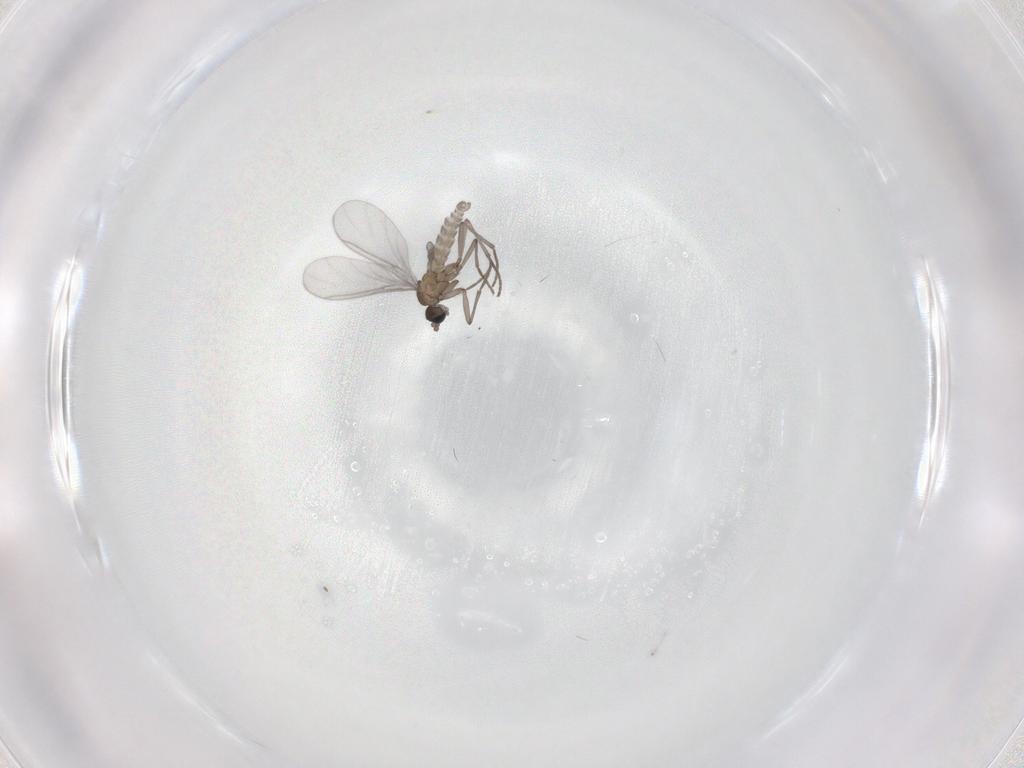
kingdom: Animalia
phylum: Arthropoda
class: Insecta
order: Diptera
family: Sciaridae
